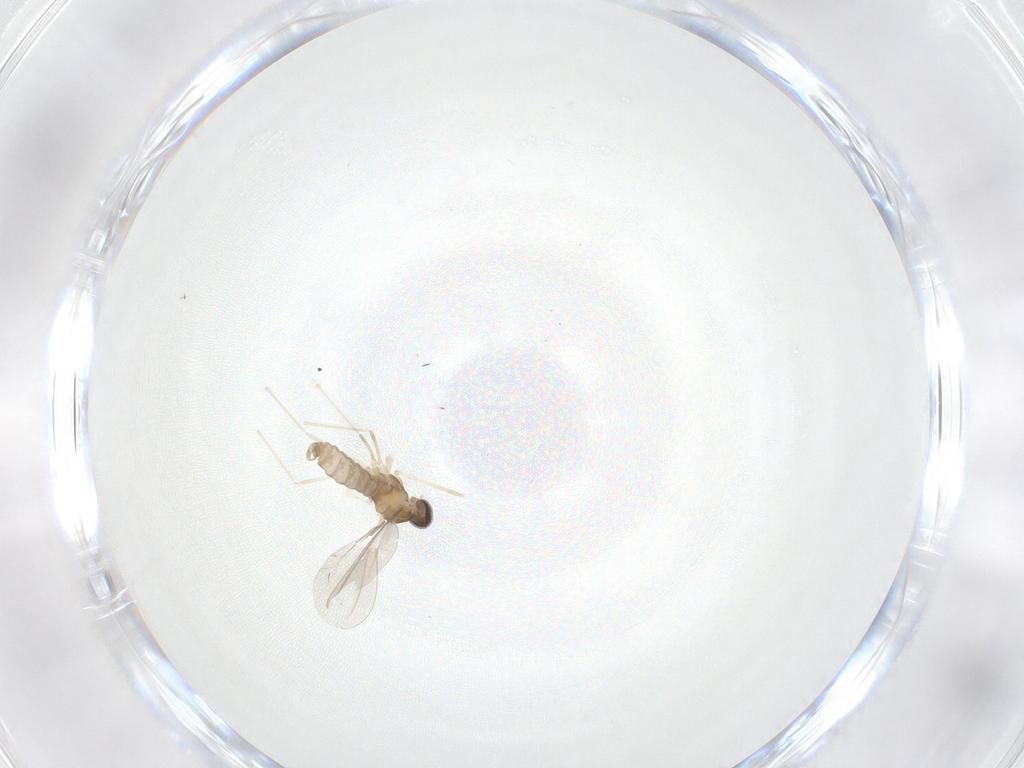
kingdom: Animalia
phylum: Arthropoda
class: Insecta
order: Diptera
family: Cecidomyiidae
